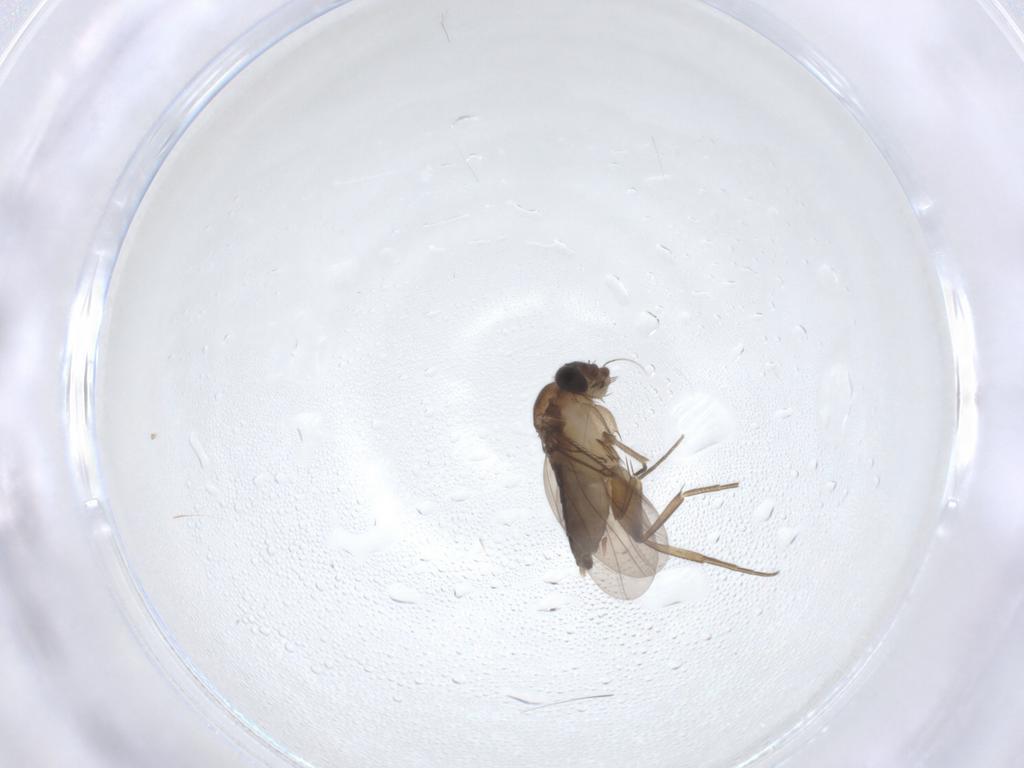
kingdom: Animalia
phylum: Arthropoda
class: Insecta
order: Diptera
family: Phoridae
